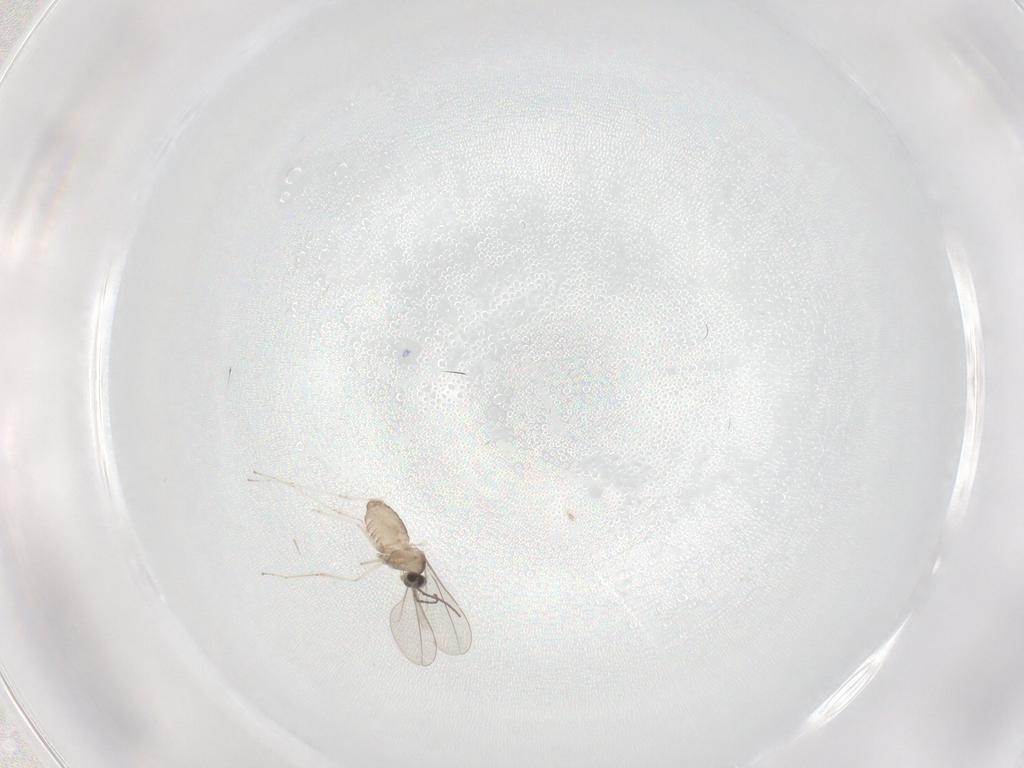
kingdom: Animalia
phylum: Arthropoda
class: Insecta
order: Diptera
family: Cecidomyiidae
